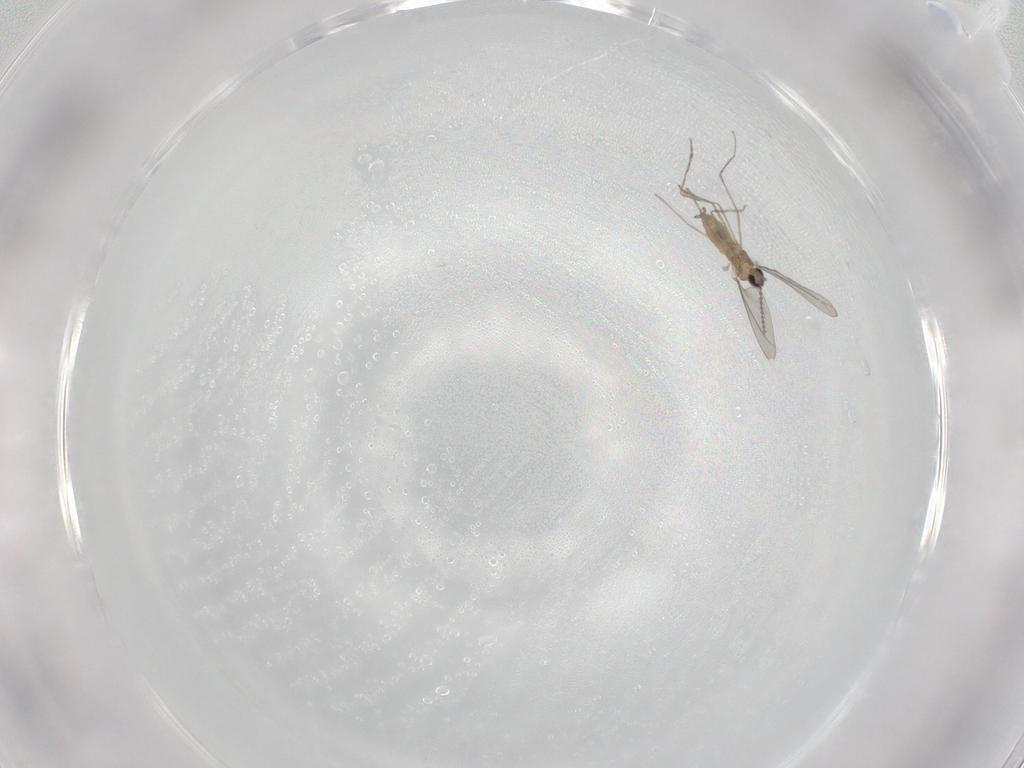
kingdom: Animalia
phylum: Arthropoda
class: Insecta
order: Diptera
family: Cecidomyiidae
